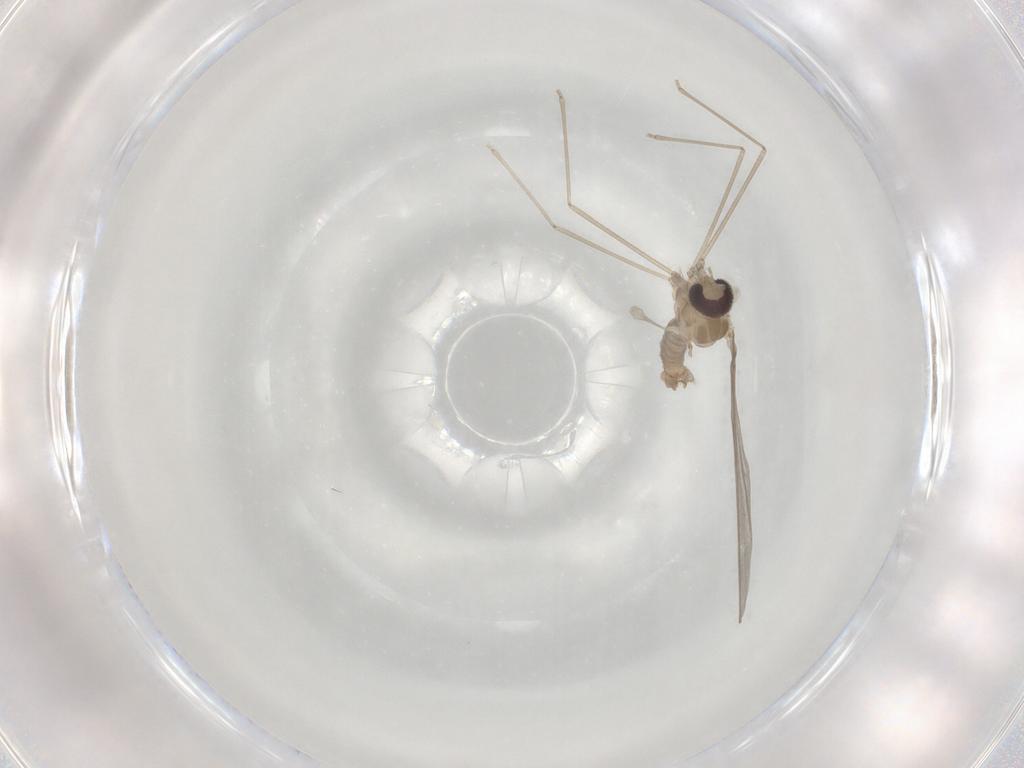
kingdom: Animalia
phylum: Arthropoda
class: Insecta
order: Diptera
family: Cecidomyiidae
